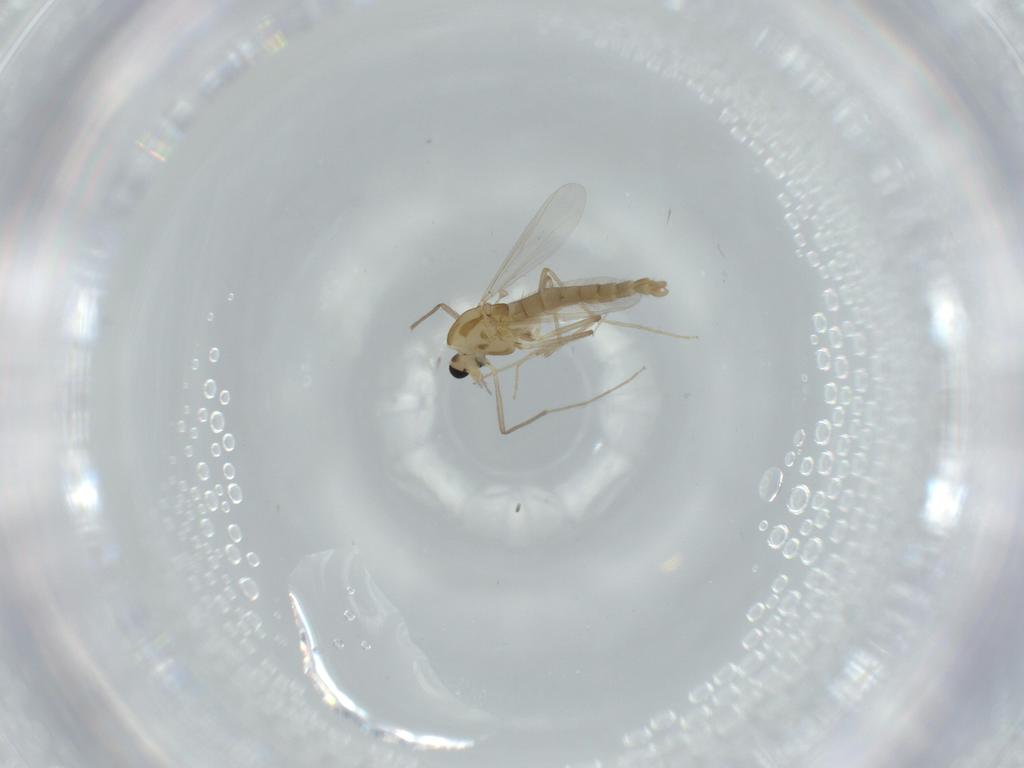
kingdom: Animalia
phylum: Arthropoda
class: Insecta
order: Diptera
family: Chironomidae
